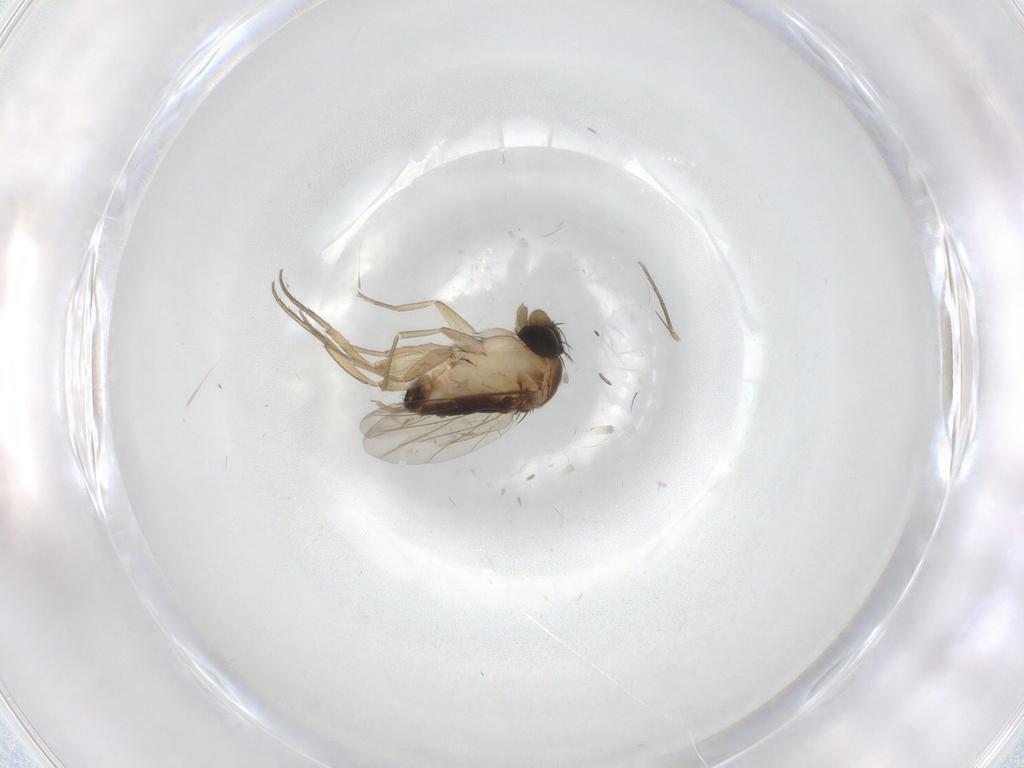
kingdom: Animalia
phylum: Arthropoda
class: Insecta
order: Diptera
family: Phoridae
